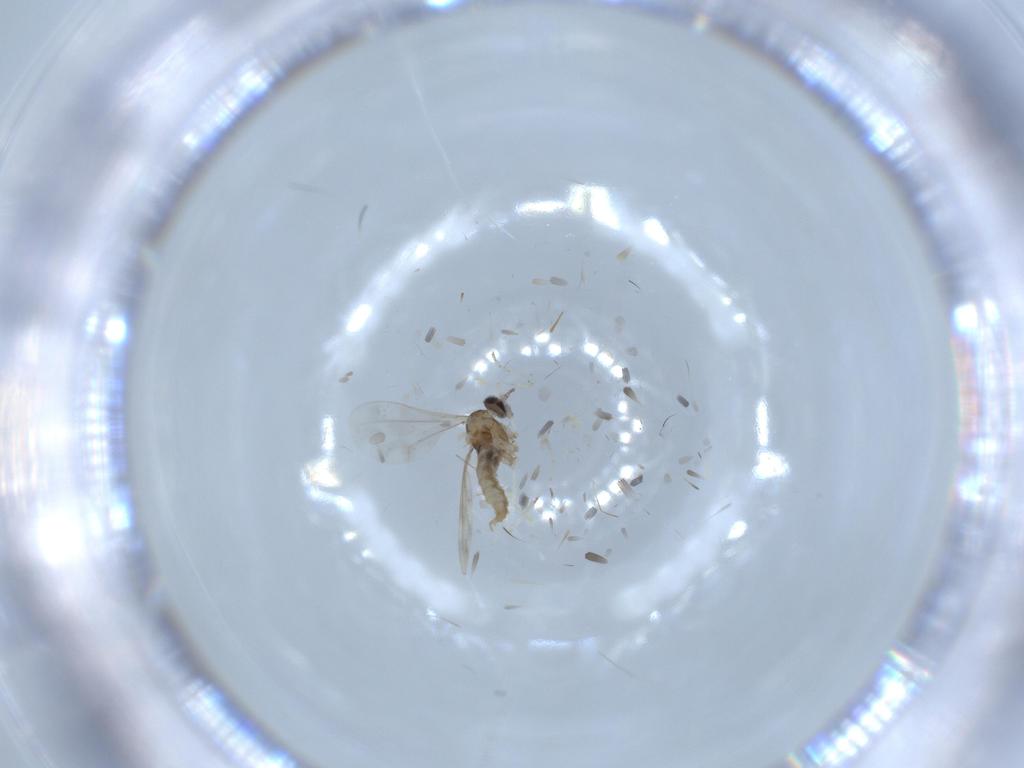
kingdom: Animalia
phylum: Arthropoda
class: Insecta
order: Diptera
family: Cecidomyiidae
